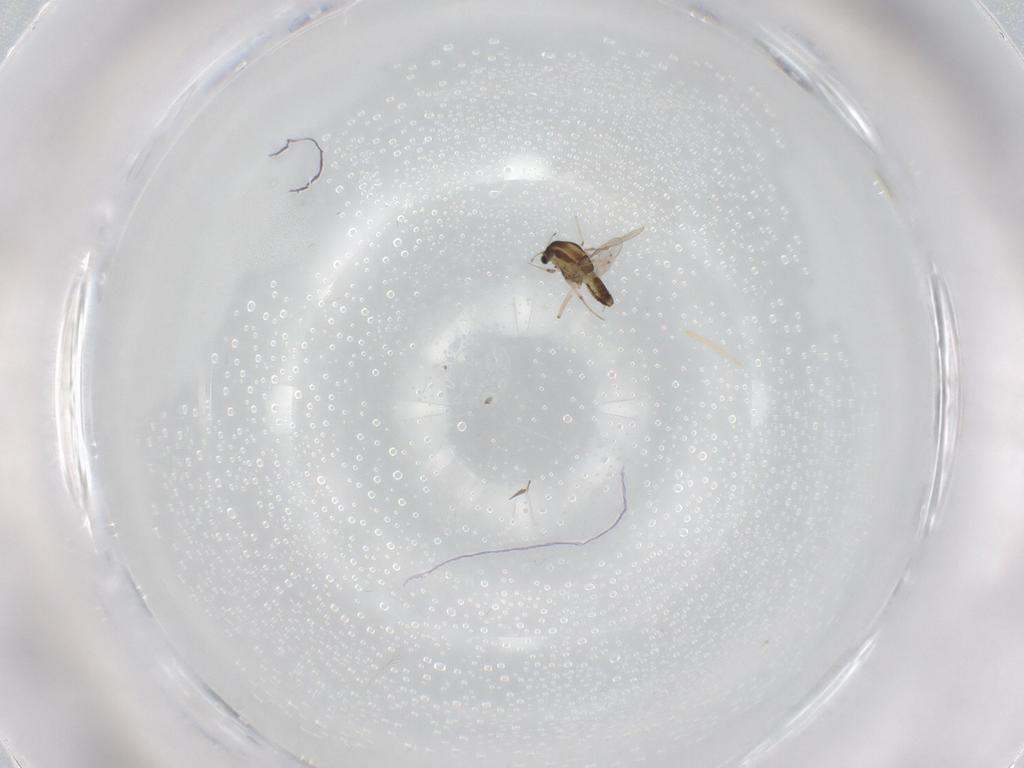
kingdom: Animalia
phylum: Arthropoda
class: Insecta
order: Diptera
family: Chironomidae
